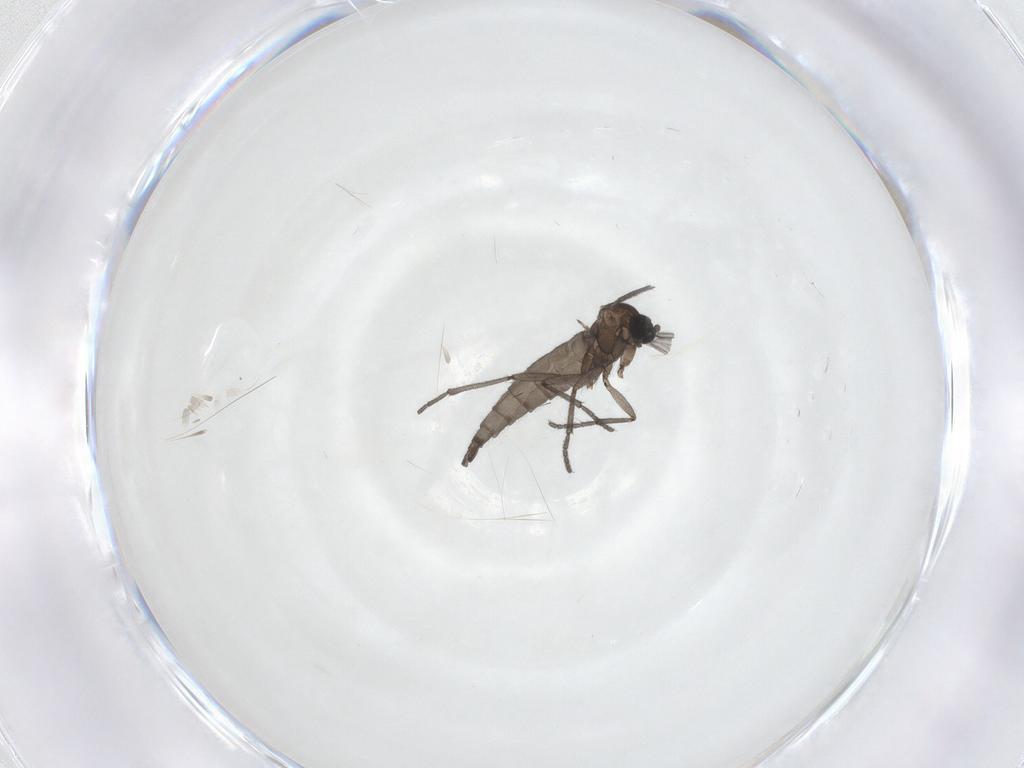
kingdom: Animalia
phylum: Arthropoda
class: Insecta
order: Diptera
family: Sciaridae
